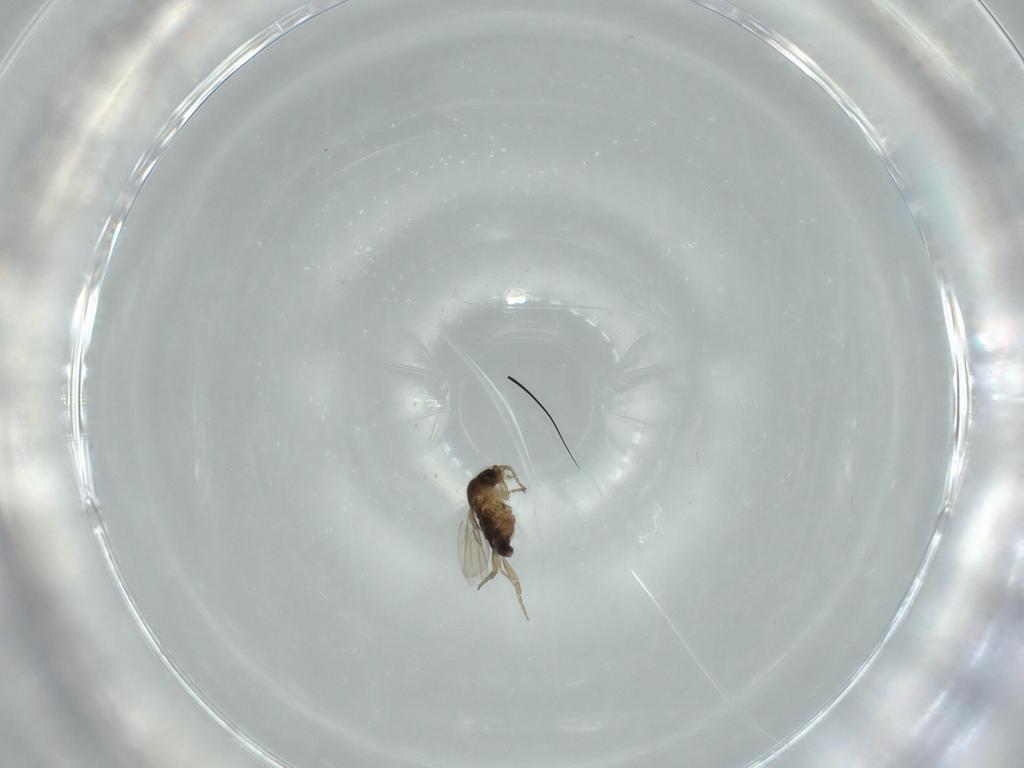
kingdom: Animalia
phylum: Arthropoda
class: Insecta
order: Diptera
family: Phoridae
